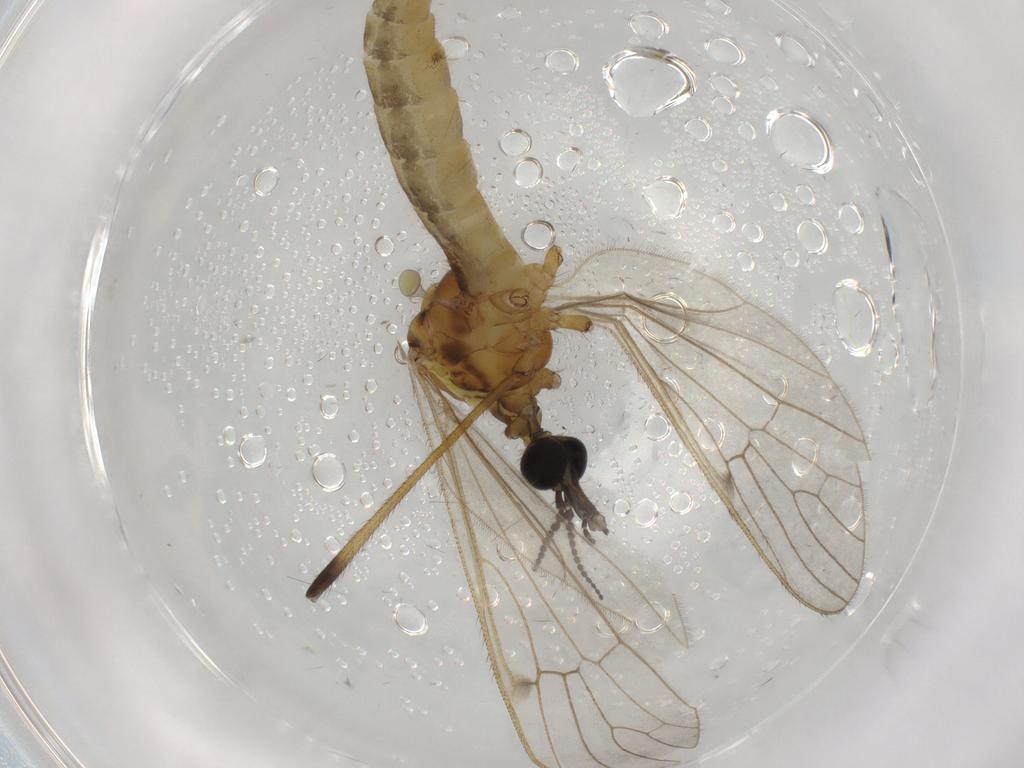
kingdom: Animalia
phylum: Arthropoda
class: Insecta
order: Diptera
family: Phoridae
